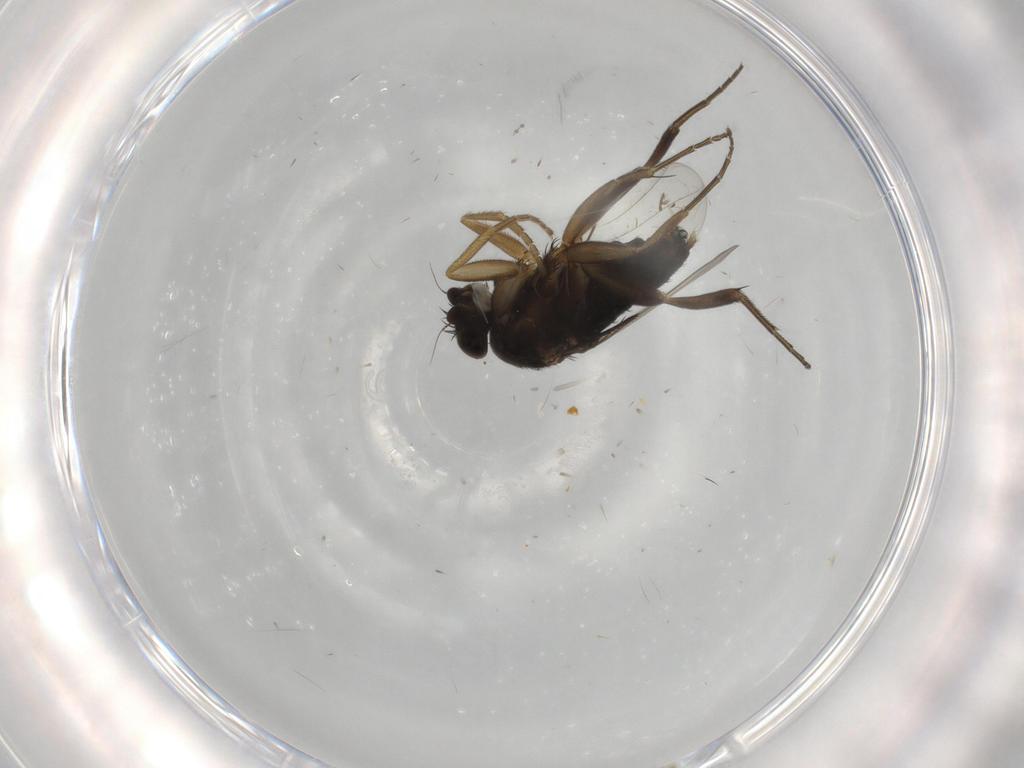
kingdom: Animalia
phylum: Arthropoda
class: Insecta
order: Diptera
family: Phoridae
